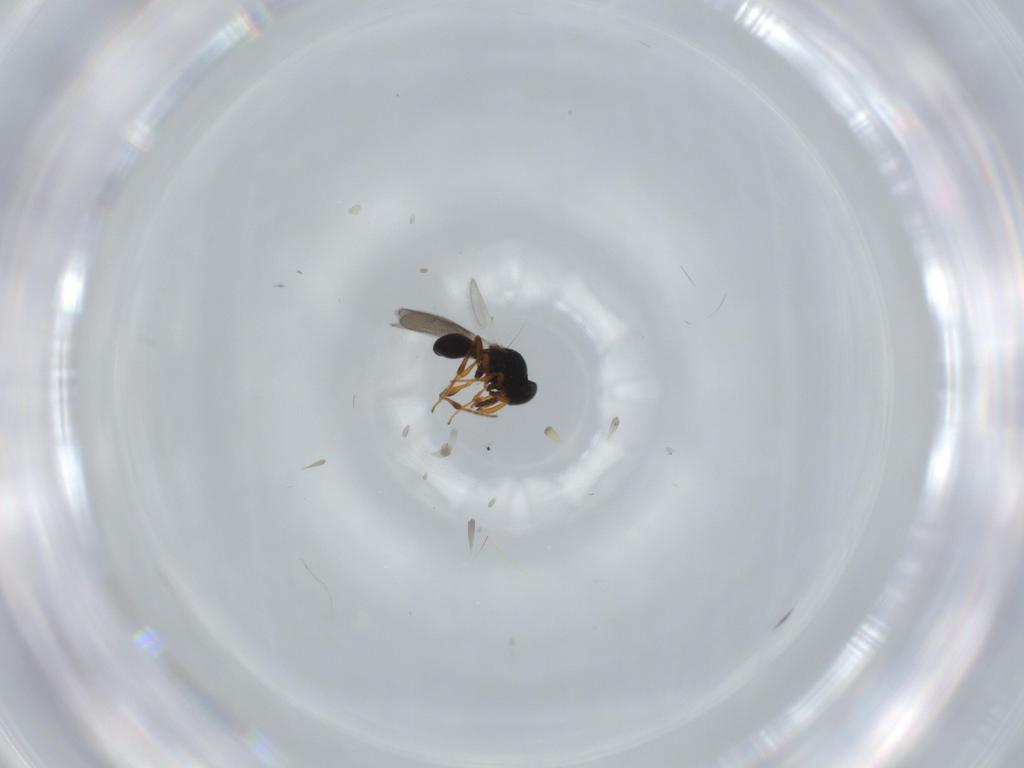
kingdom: Animalia
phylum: Arthropoda
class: Insecta
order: Hymenoptera
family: Platygastridae
